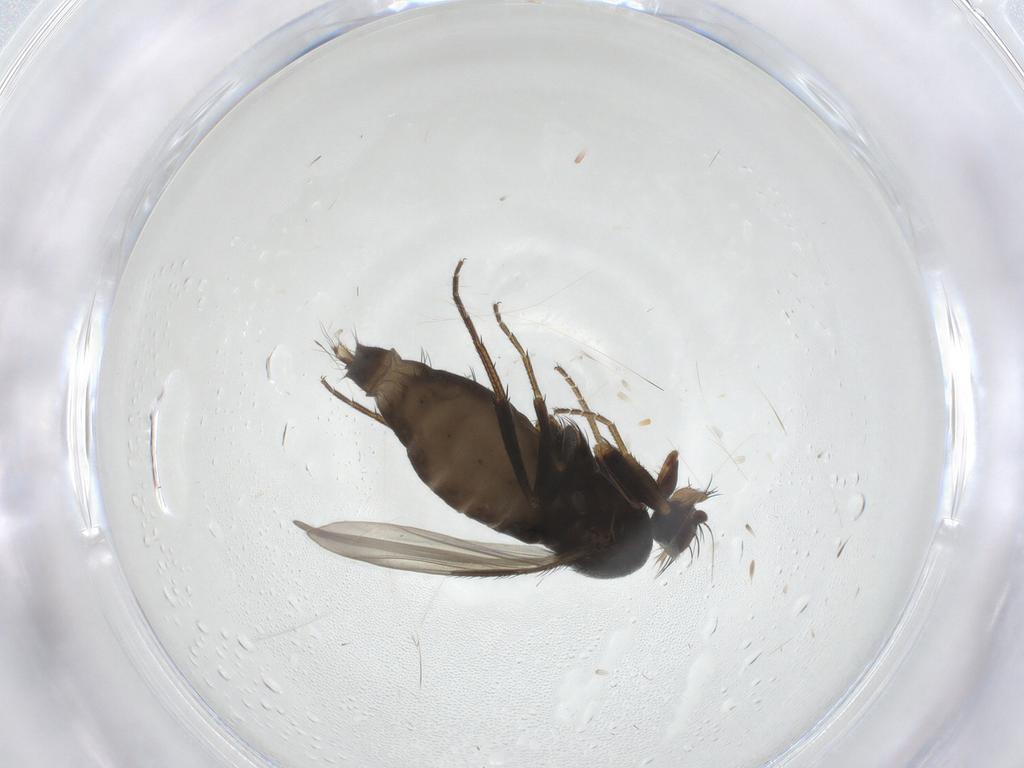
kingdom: Animalia
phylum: Arthropoda
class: Insecta
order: Diptera
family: Phoridae
